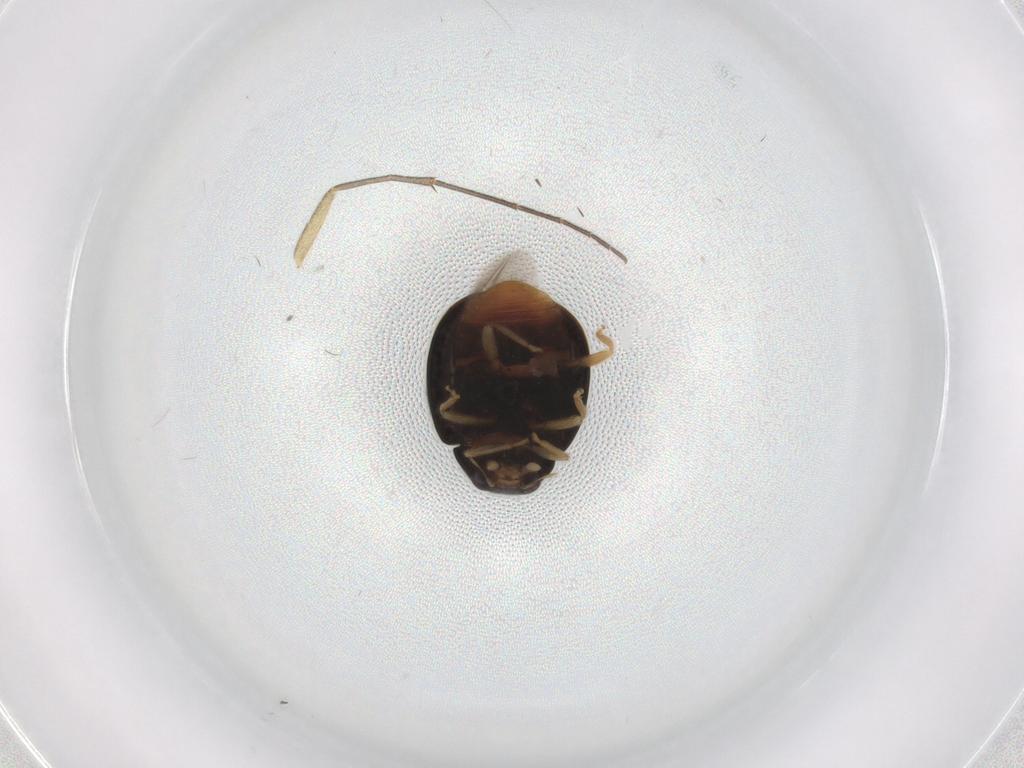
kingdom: Animalia
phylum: Arthropoda
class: Insecta
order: Coleoptera
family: Coccinellidae
